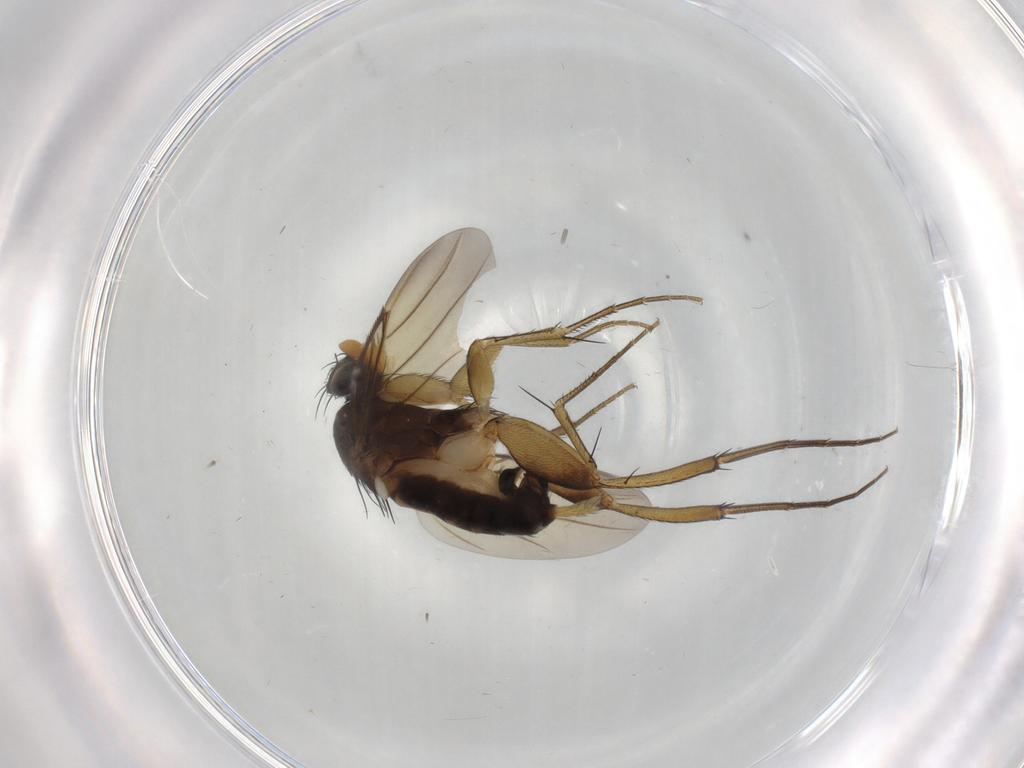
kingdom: Animalia
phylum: Arthropoda
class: Insecta
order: Diptera
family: Phoridae
